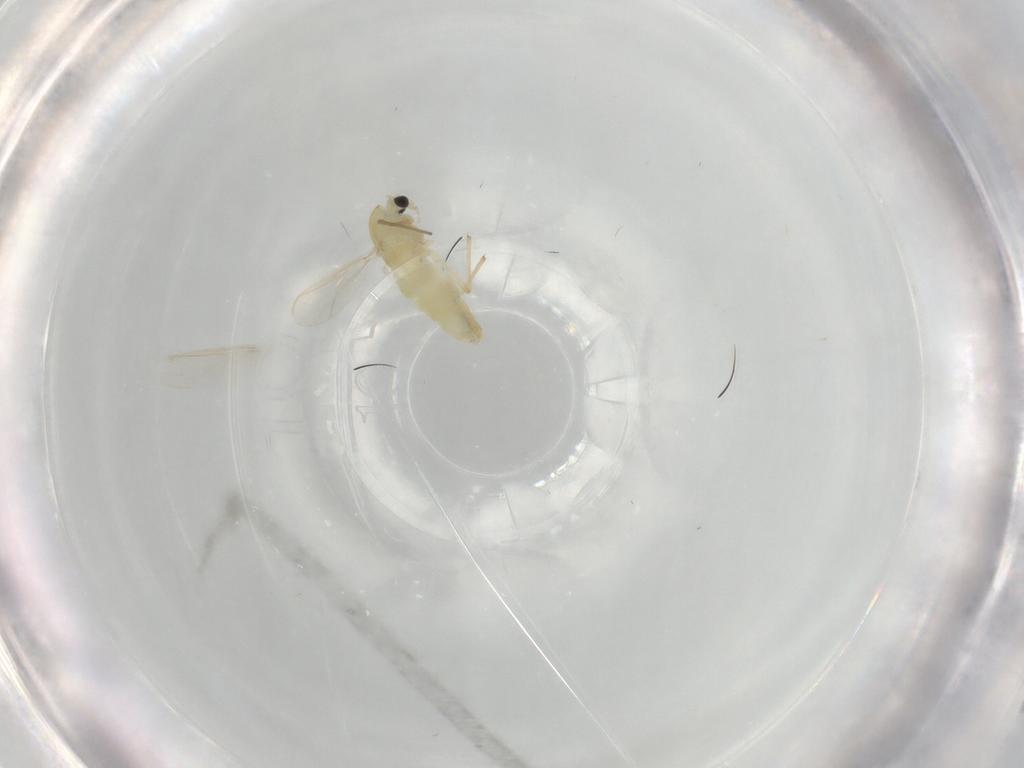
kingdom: Animalia
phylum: Arthropoda
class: Insecta
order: Diptera
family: Chironomidae
